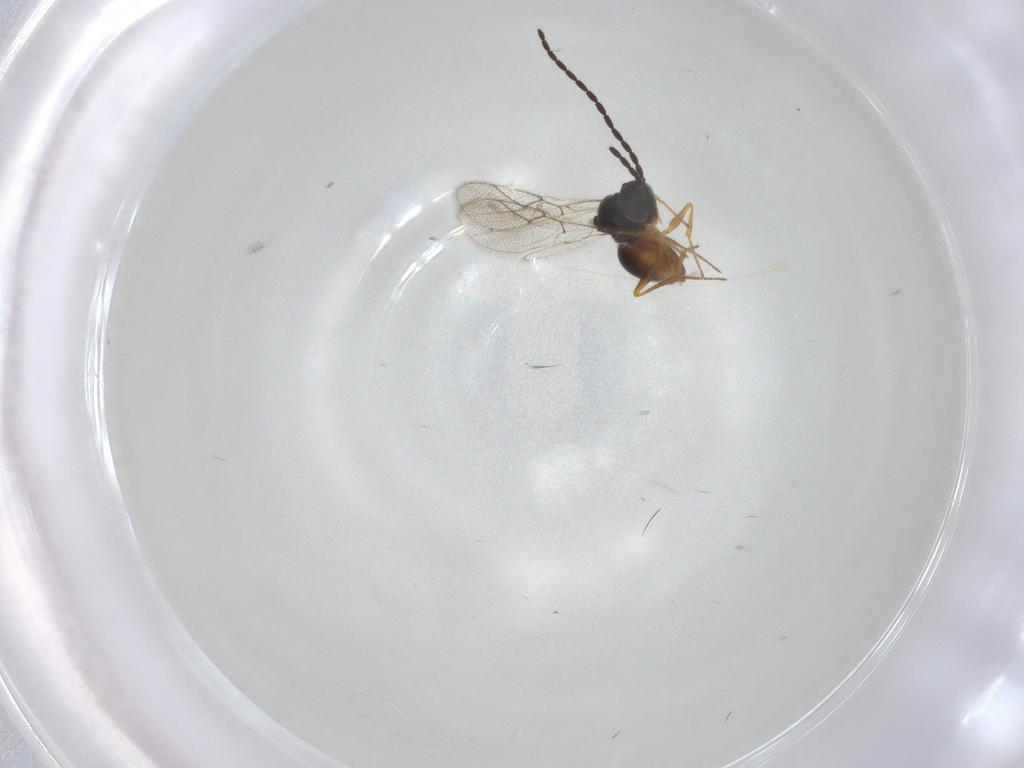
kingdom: Animalia
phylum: Arthropoda
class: Insecta
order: Hymenoptera
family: Figitidae
